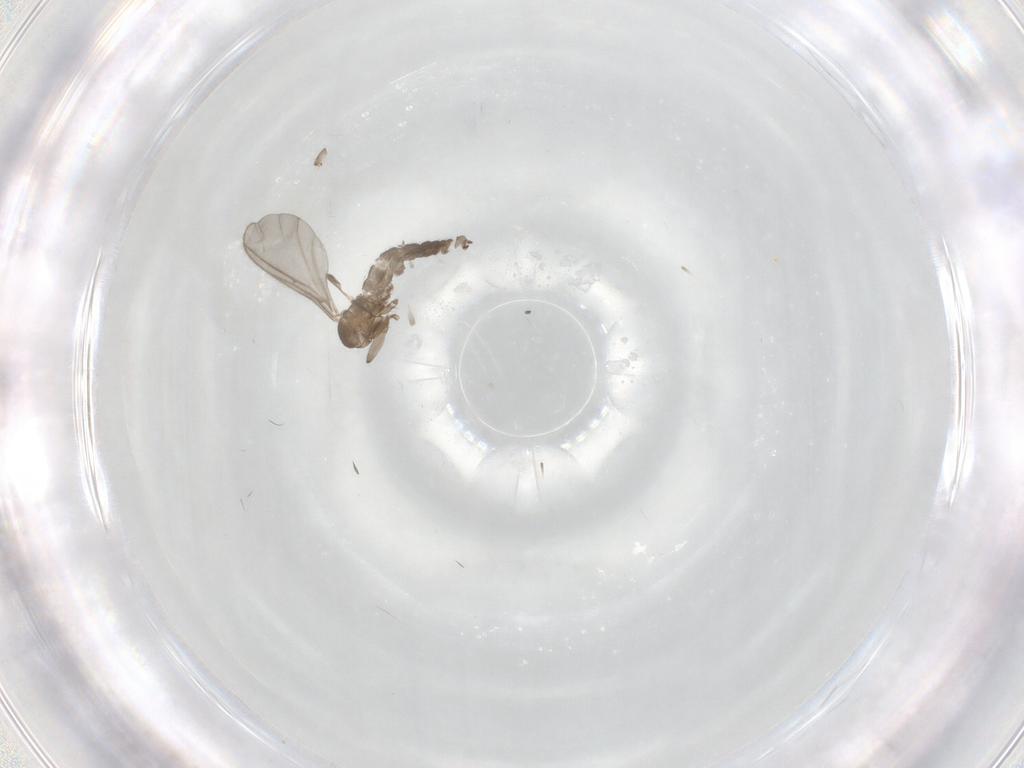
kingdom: Animalia
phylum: Arthropoda
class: Insecta
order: Diptera
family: Sciaridae
